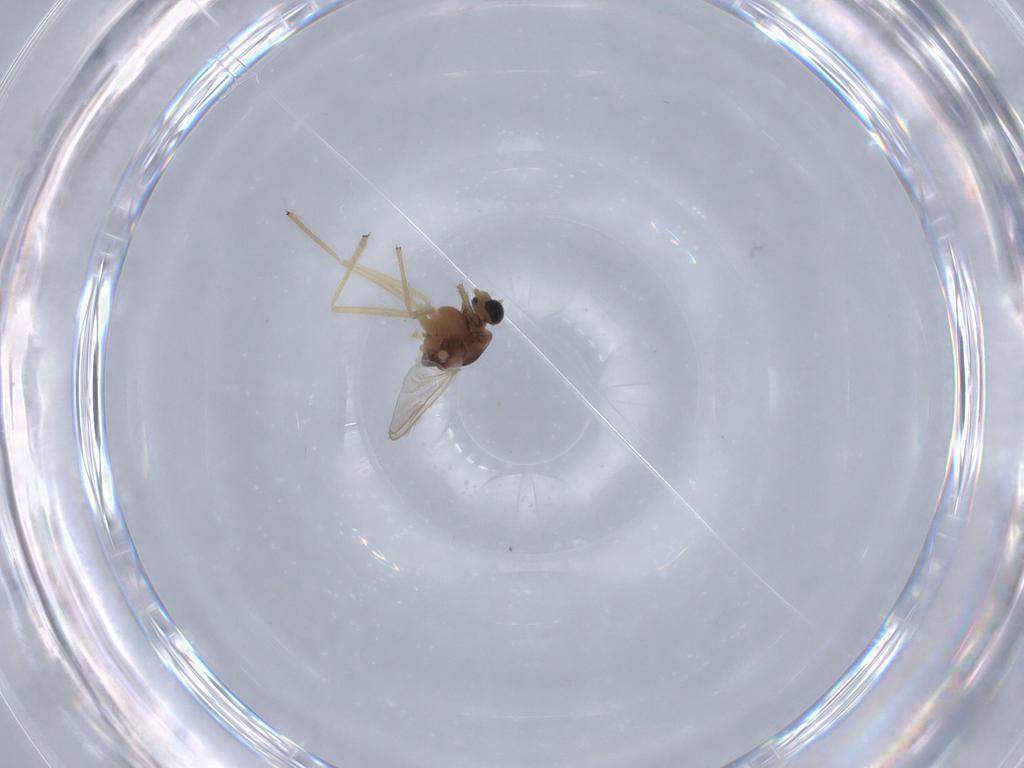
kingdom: Animalia
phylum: Arthropoda
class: Insecta
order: Diptera
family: Chironomidae
